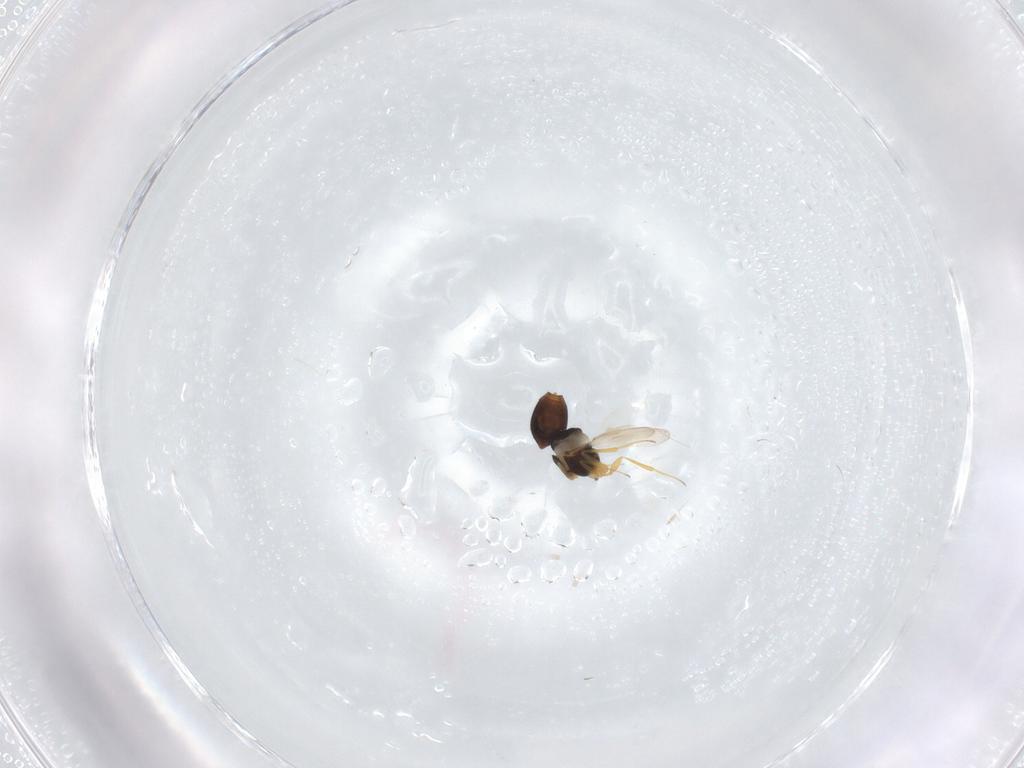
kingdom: Animalia
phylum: Arthropoda
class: Insecta
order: Hymenoptera
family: Scelionidae
